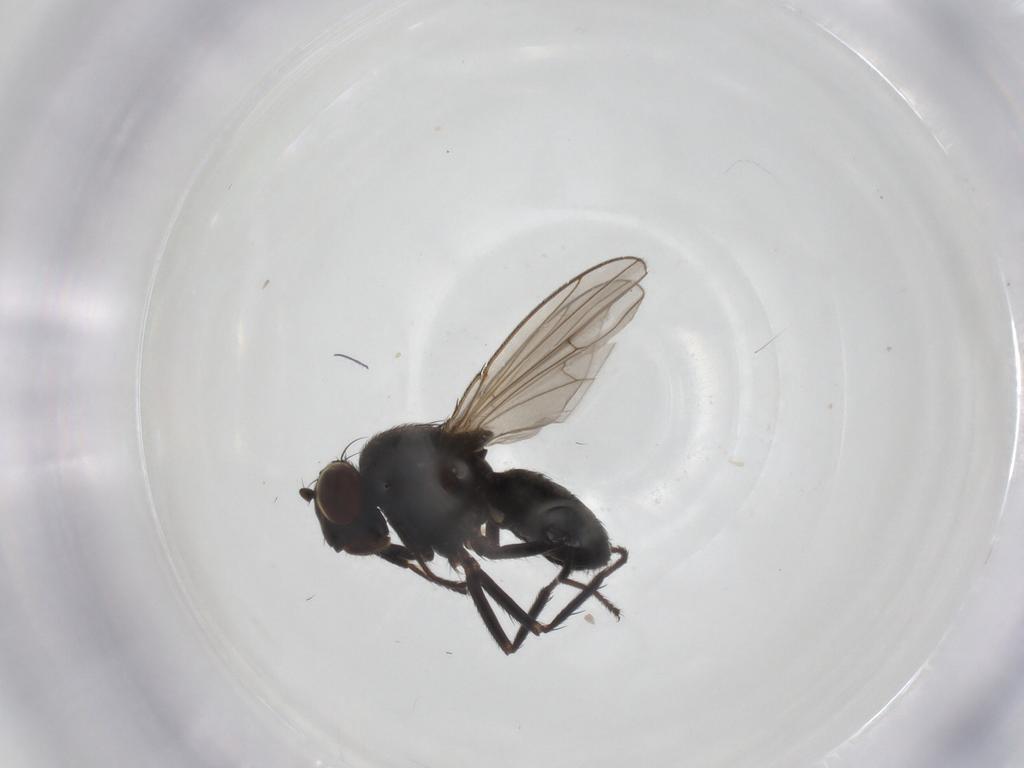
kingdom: Animalia
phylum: Arthropoda
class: Insecta
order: Diptera
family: Ephydridae
